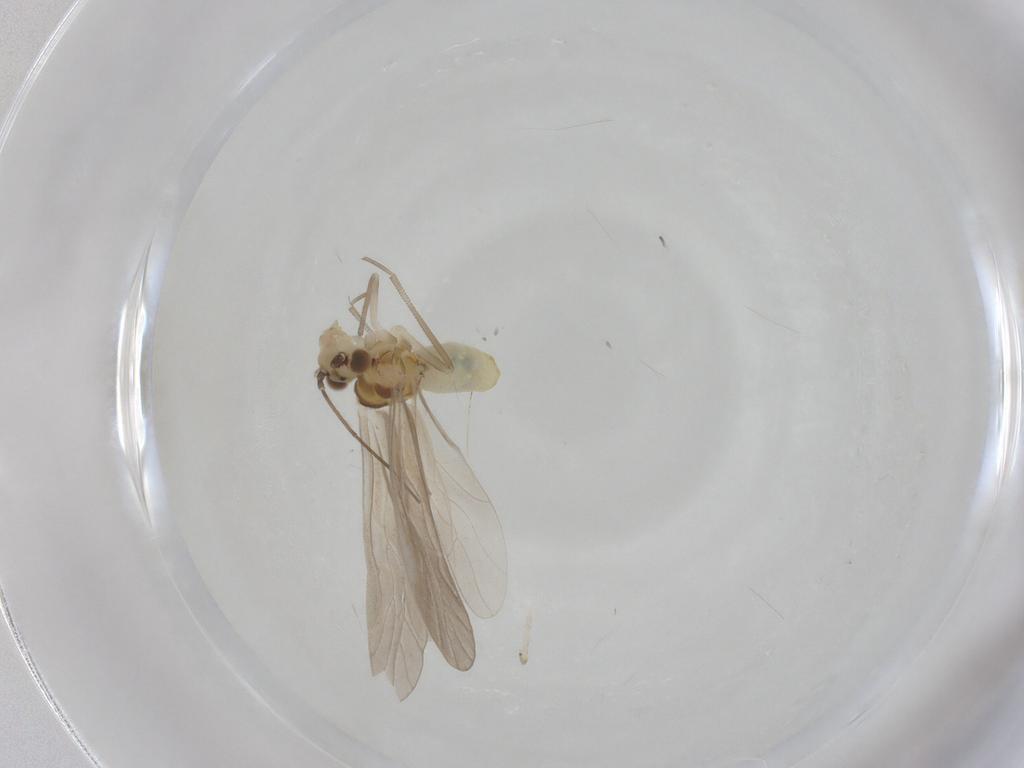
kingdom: Animalia
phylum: Arthropoda
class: Insecta
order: Psocodea
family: Caeciliusidae
